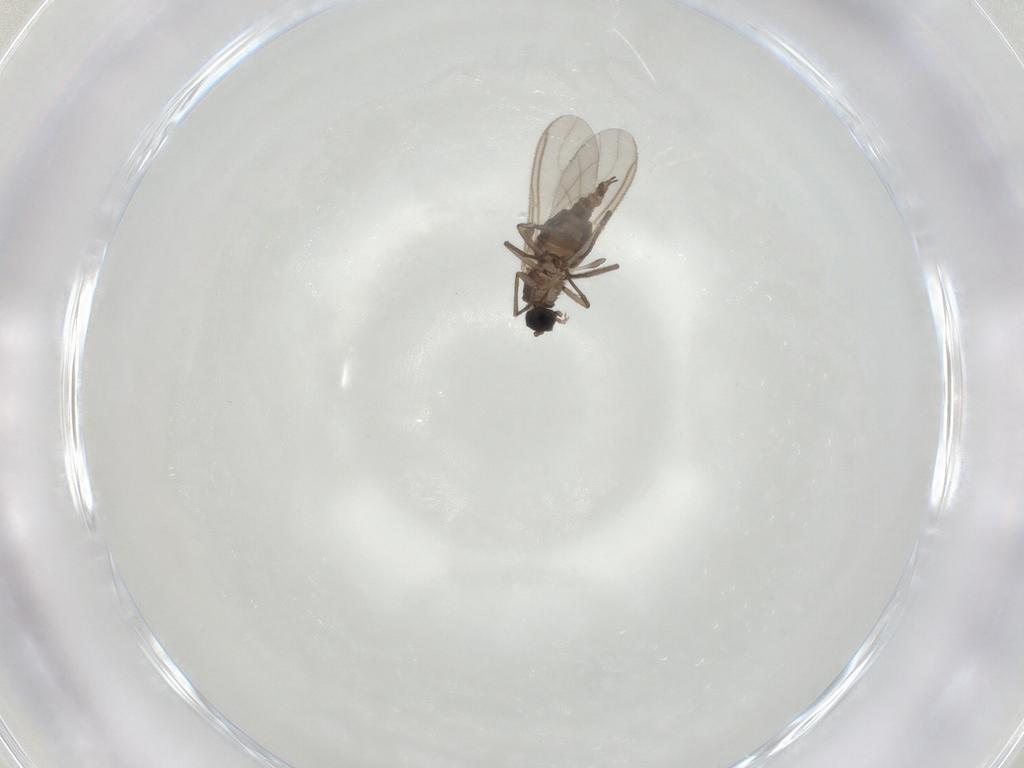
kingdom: Animalia
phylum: Arthropoda
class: Insecta
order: Diptera
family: Sciaridae
